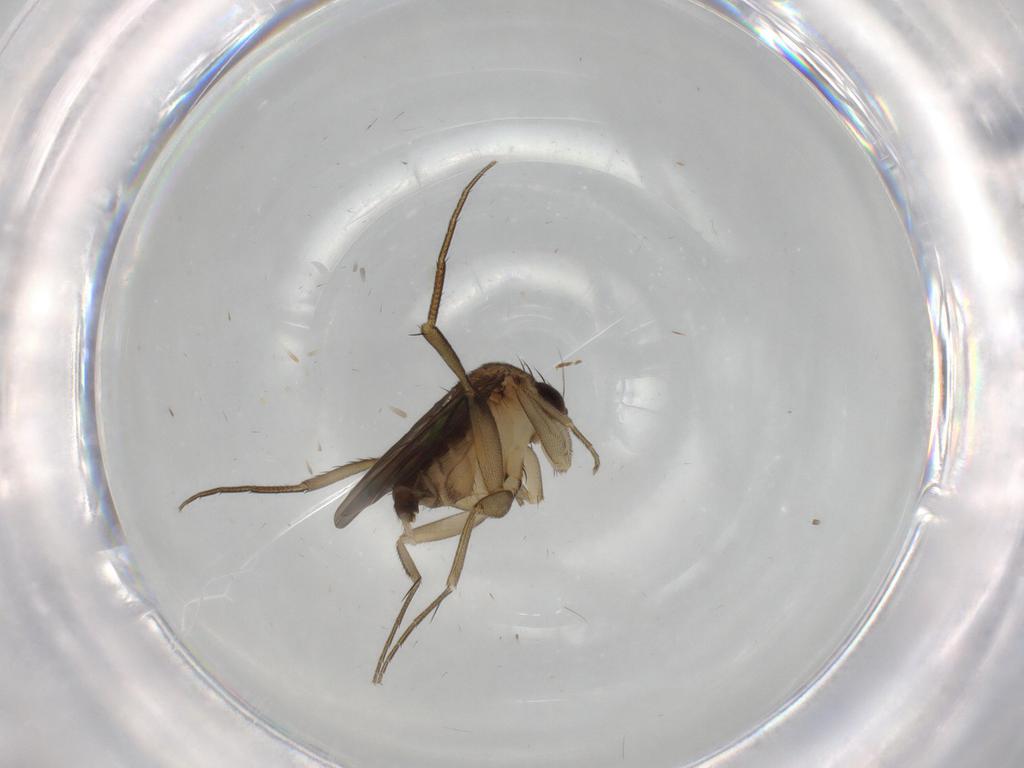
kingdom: Animalia
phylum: Arthropoda
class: Insecta
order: Diptera
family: Phoridae
